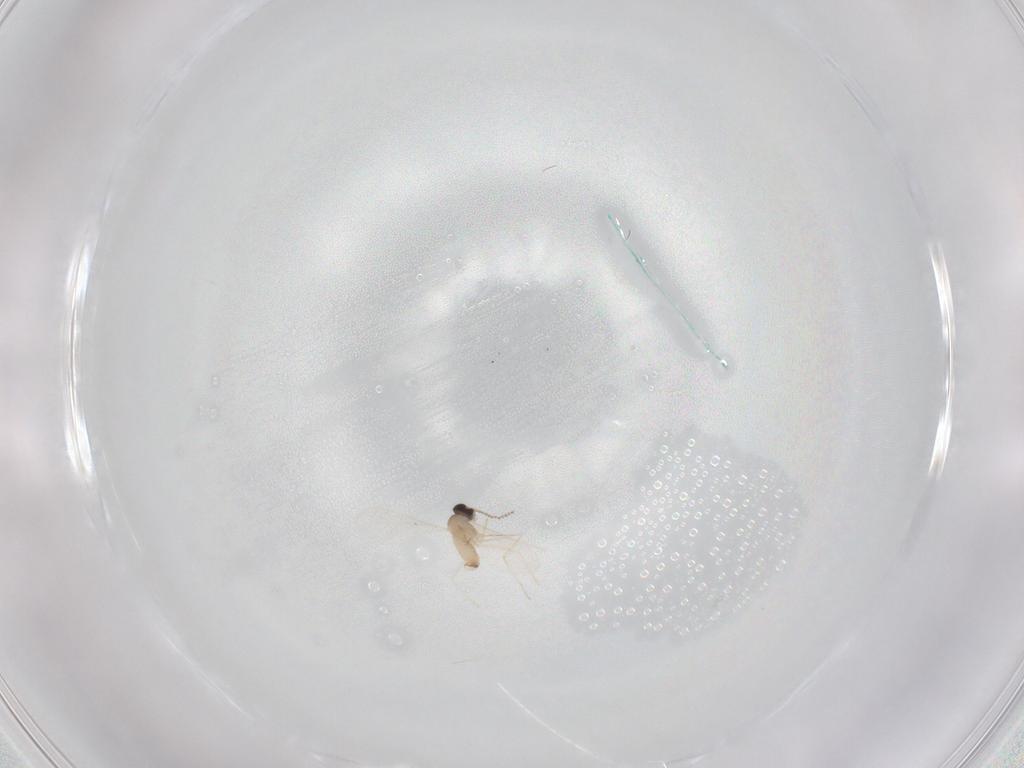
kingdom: Animalia
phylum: Arthropoda
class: Insecta
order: Diptera
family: Cecidomyiidae
